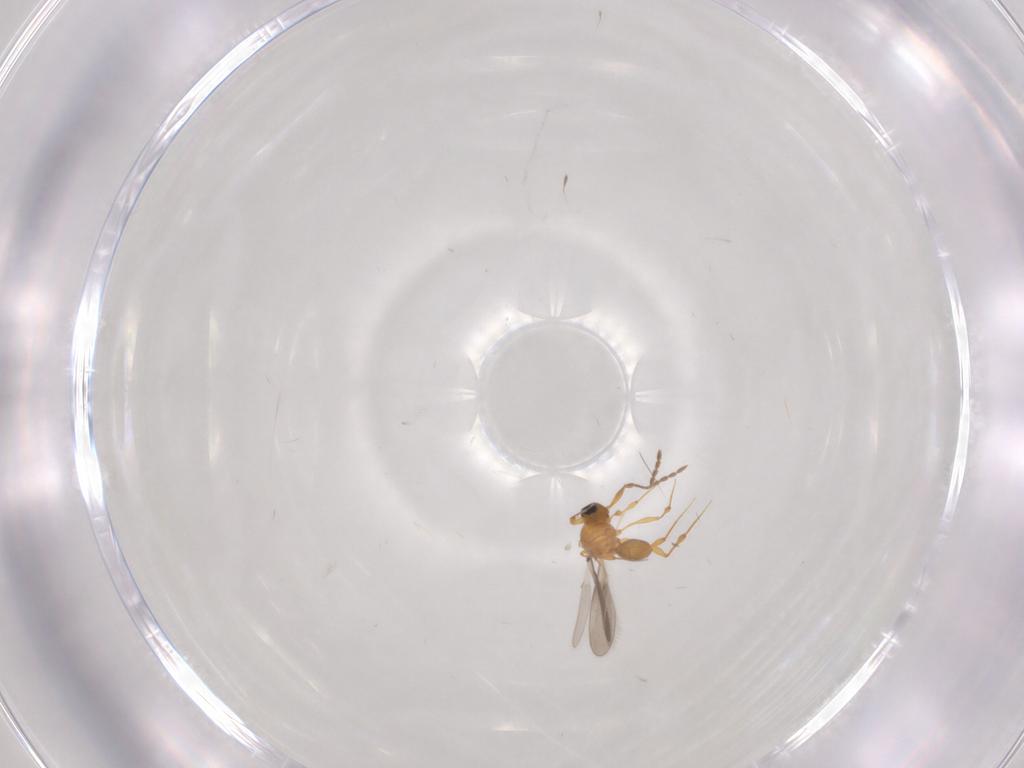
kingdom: Animalia
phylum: Arthropoda
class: Insecta
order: Hymenoptera
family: Platygastridae
